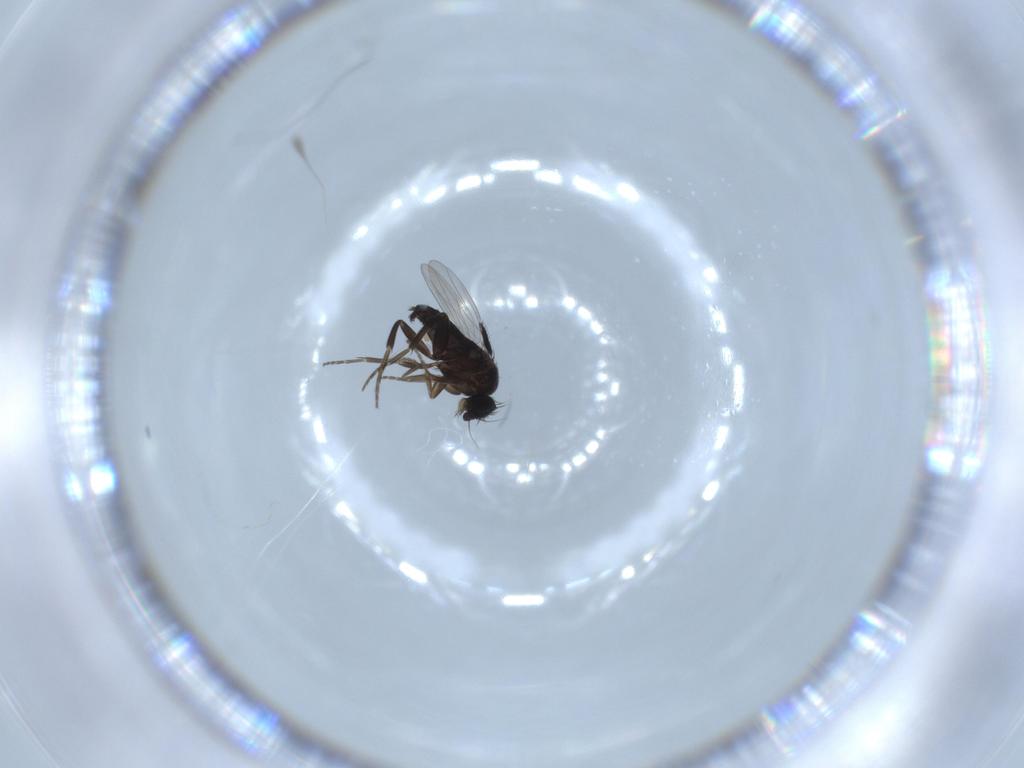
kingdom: Animalia
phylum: Arthropoda
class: Insecta
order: Diptera
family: Phoridae
